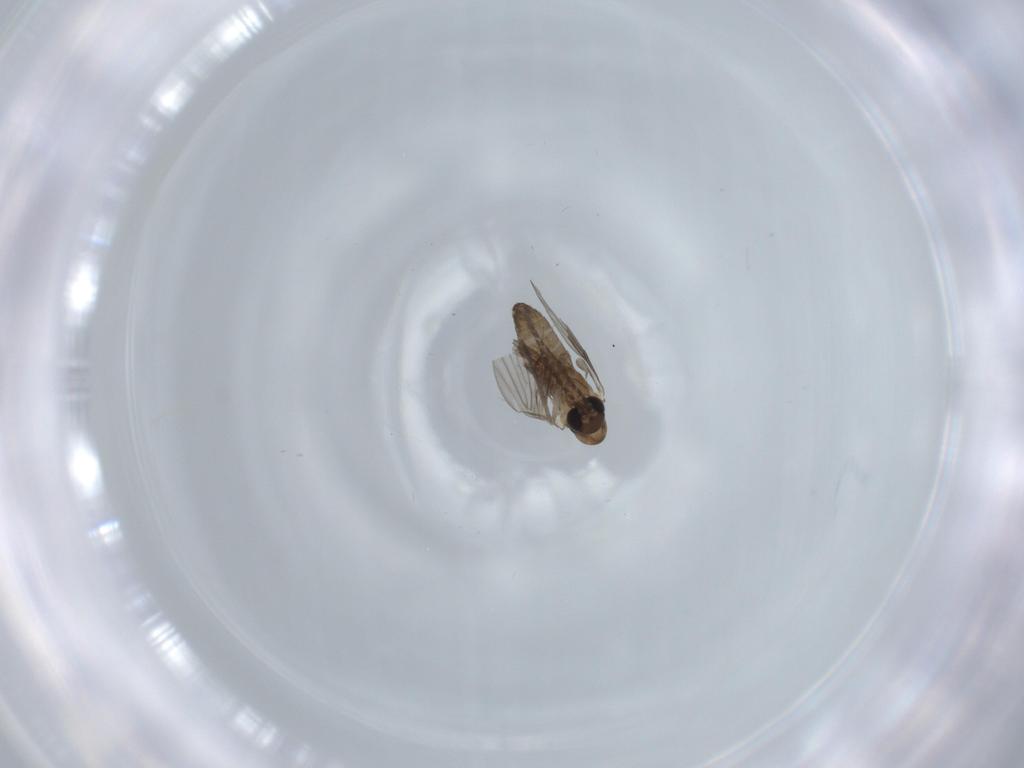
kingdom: Animalia
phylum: Arthropoda
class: Insecta
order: Diptera
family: Psychodidae
